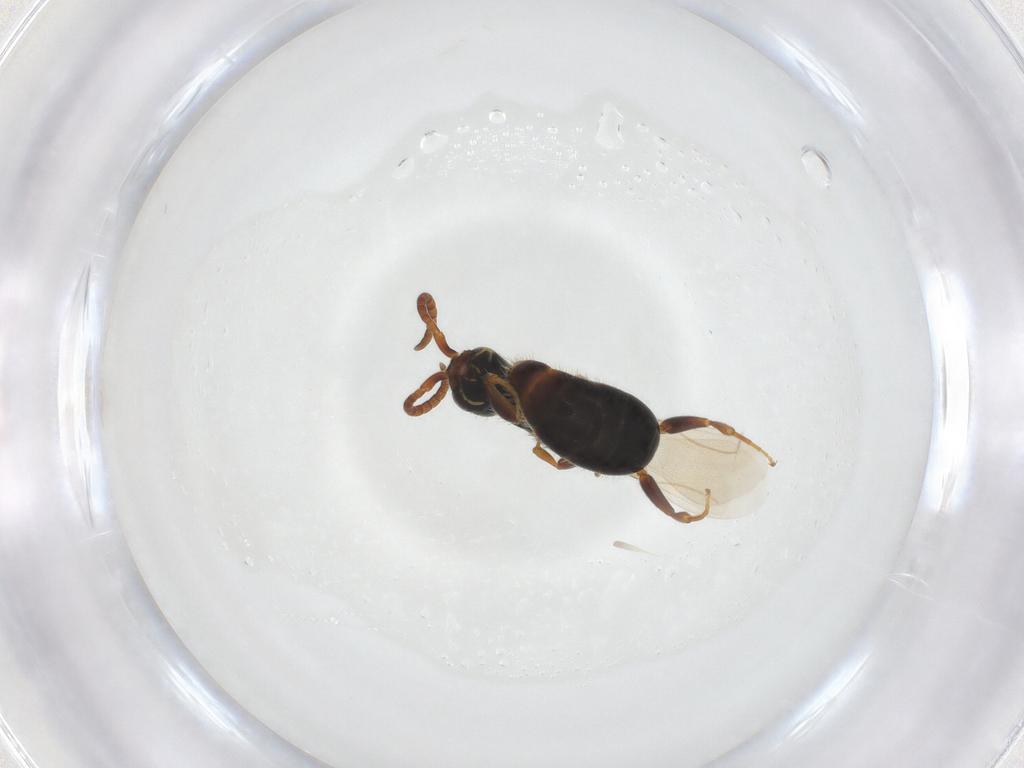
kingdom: Animalia
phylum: Arthropoda
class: Insecta
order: Hymenoptera
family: Bethylidae
